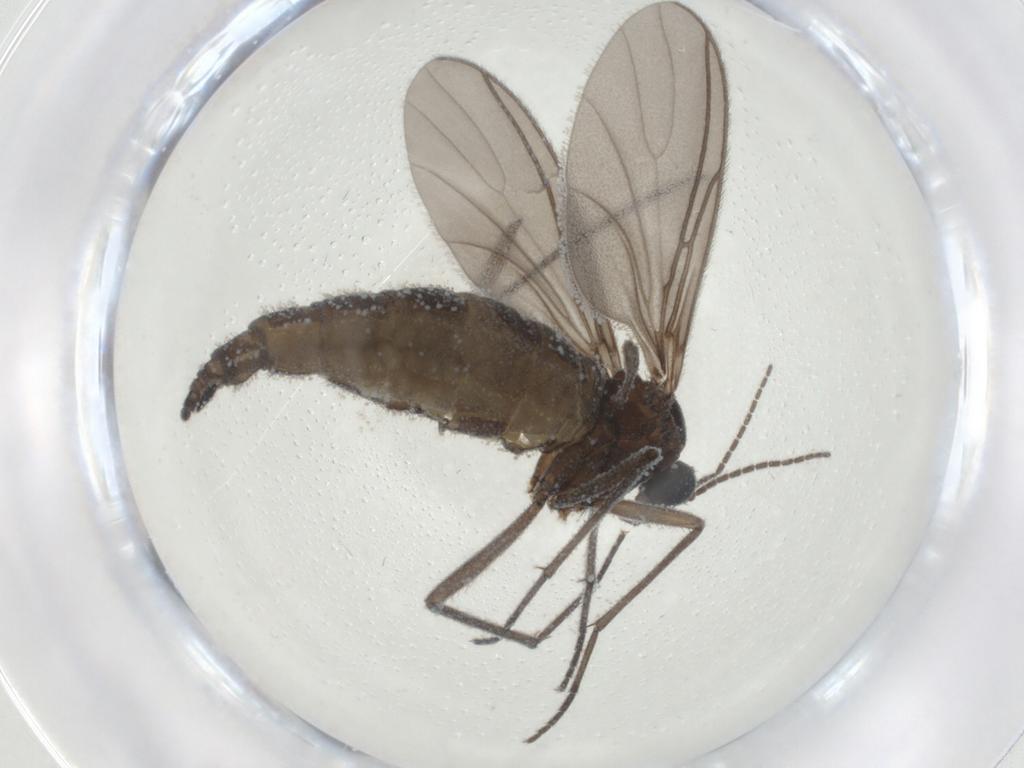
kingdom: Animalia
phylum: Arthropoda
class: Insecta
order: Diptera
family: Sciaridae
